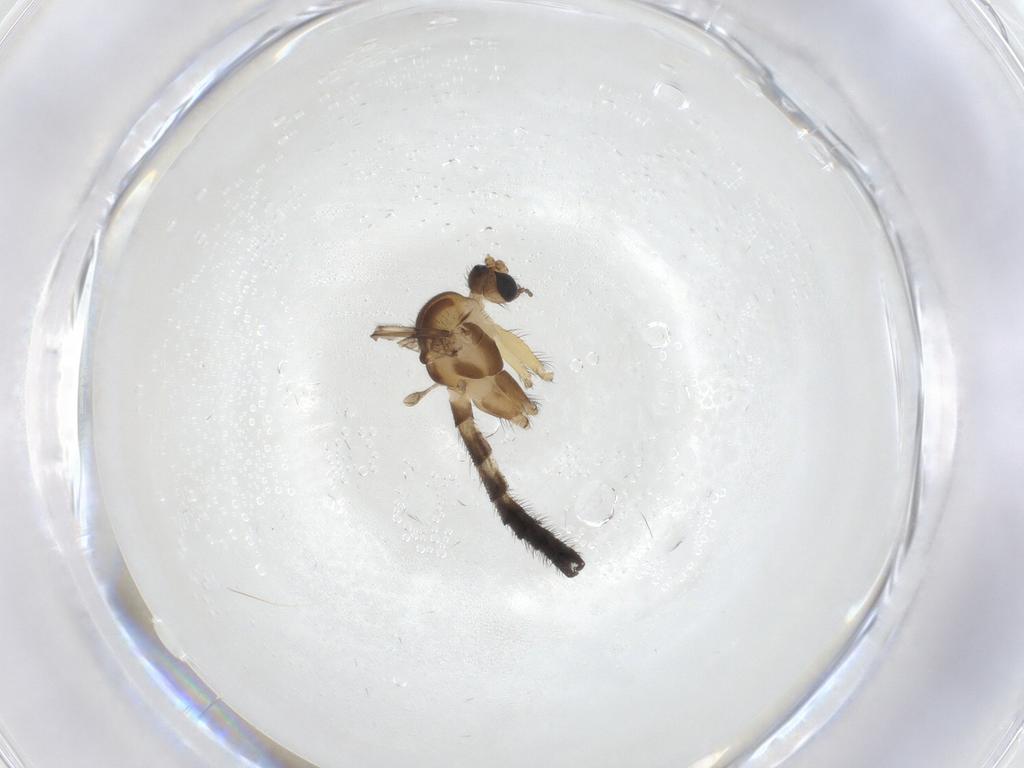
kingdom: Animalia
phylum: Arthropoda
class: Insecta
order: Diptera
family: Keroplatidae
